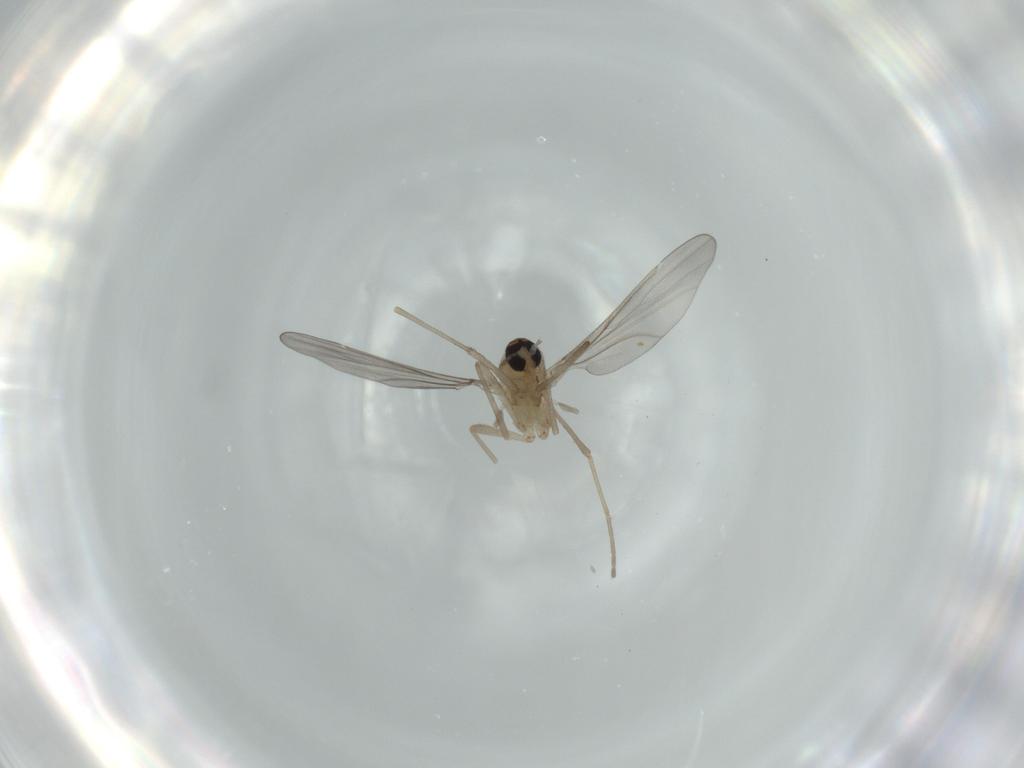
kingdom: Animalia
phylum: Arthropoda
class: Insecta
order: Diptera
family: Cecidomyiidae
